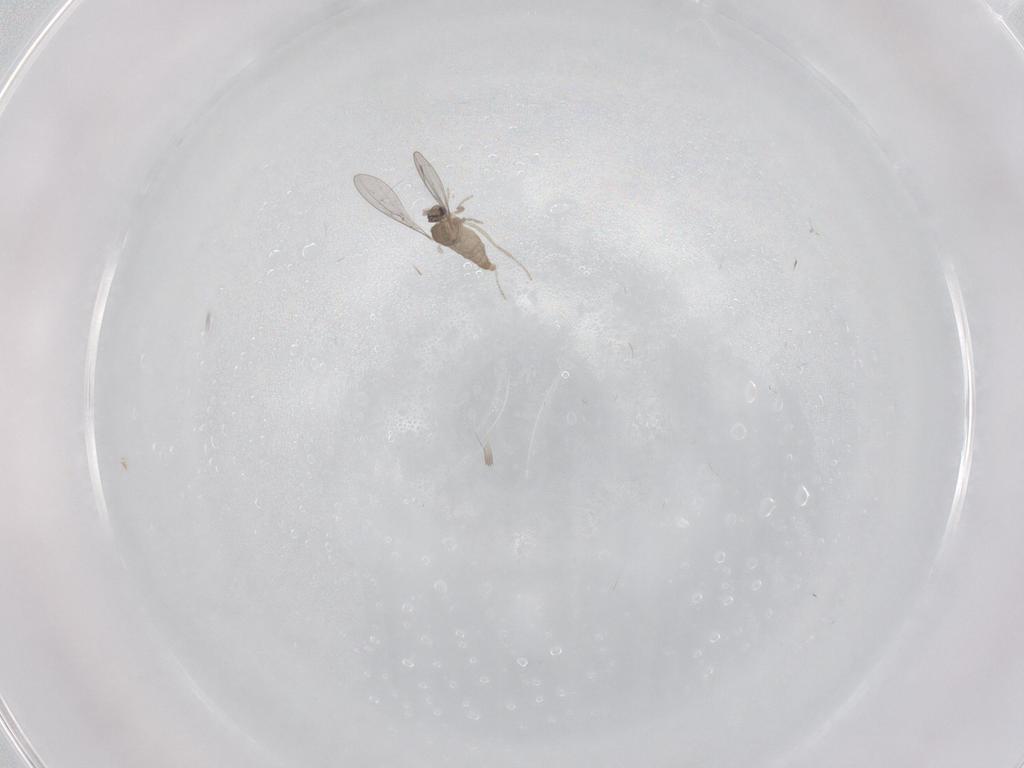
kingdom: Animalia
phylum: Arthropoda
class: Insecta
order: Diptera
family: Cecidomyiidae
